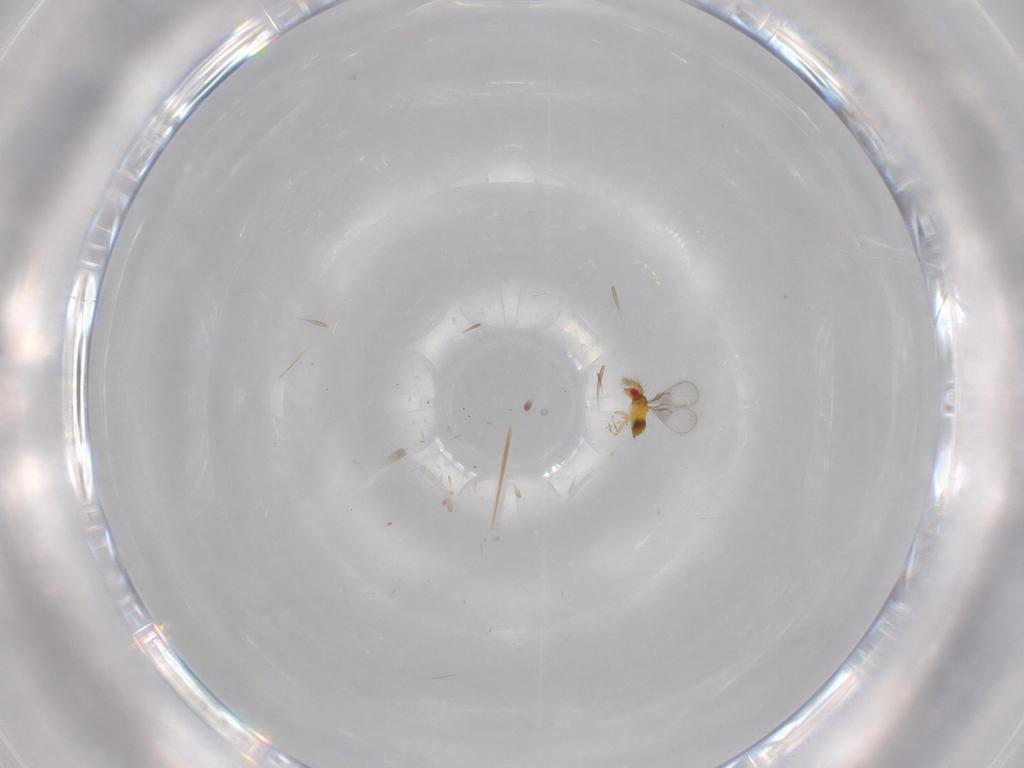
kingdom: Animalia
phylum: Arthropoda
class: Insecta
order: Hymenoptera
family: Trichogrammatidae
